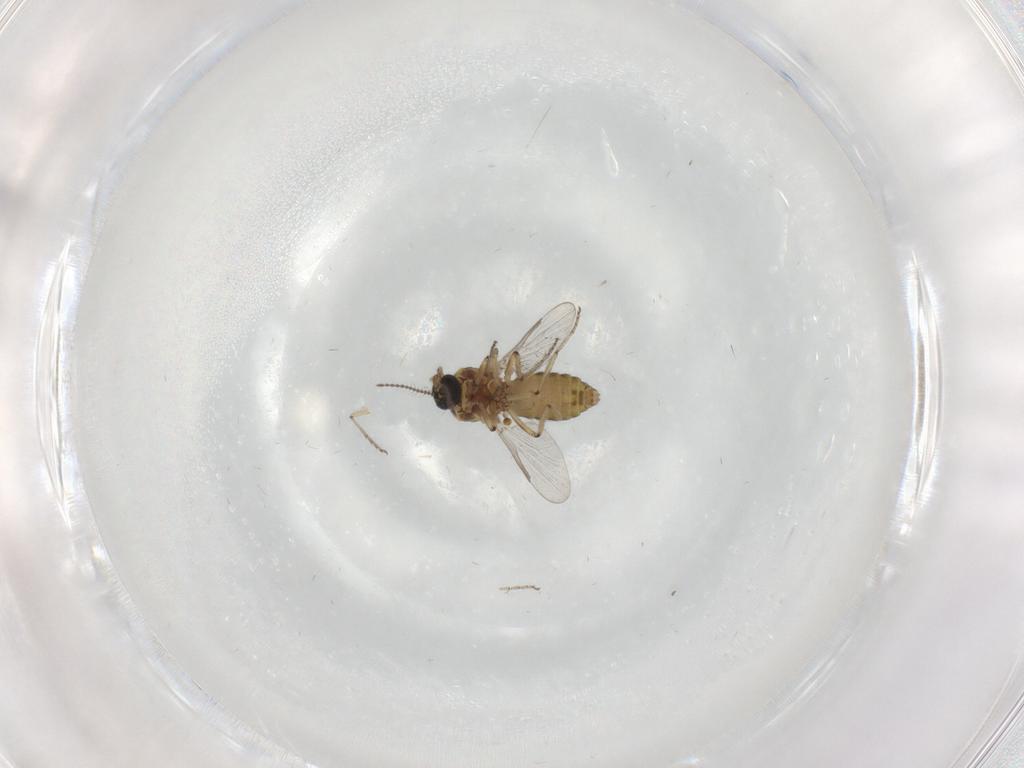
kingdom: Animalia
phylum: Arthropoda
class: Insecta
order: Diptera
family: Ceratopogonidae
